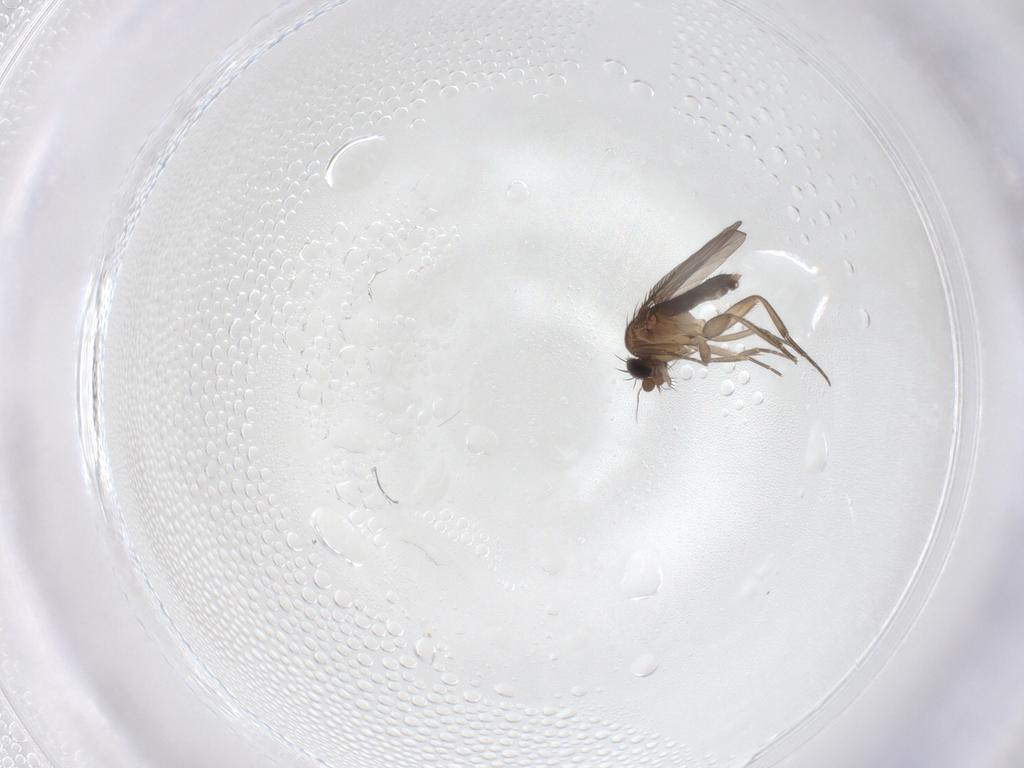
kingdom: Animalia
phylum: Arthropoda
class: Insecta
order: Diptera
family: Phoridae
